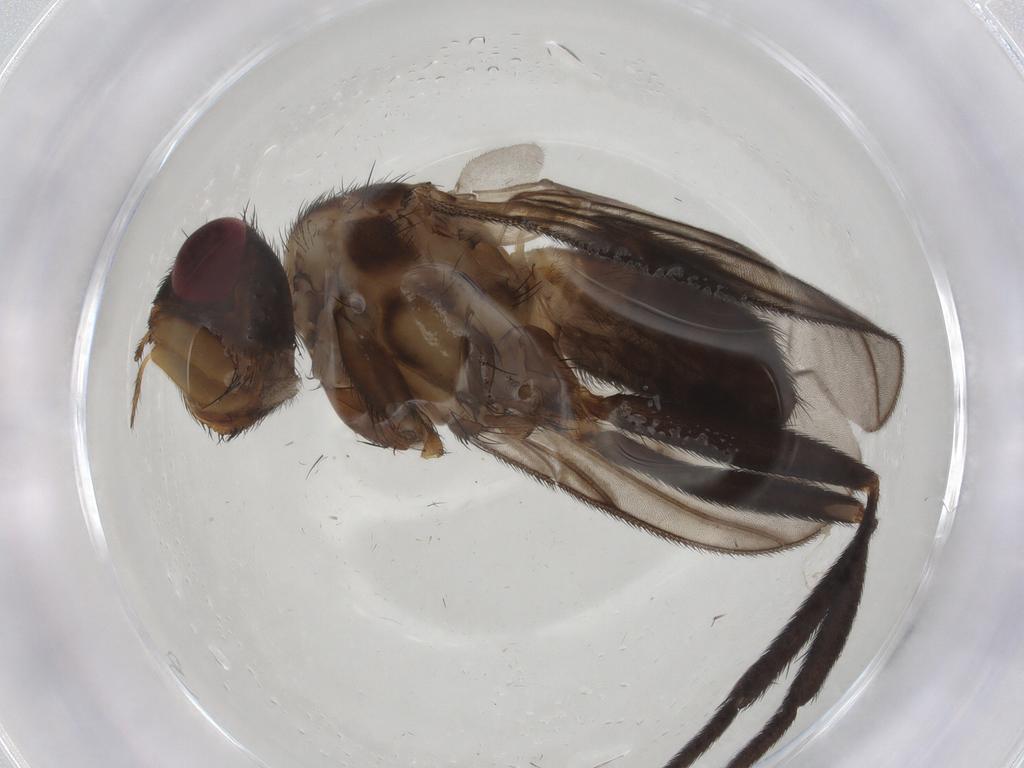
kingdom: Animalia
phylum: Arthropoda
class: Insecta
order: Diptera
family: Calliphoridae
